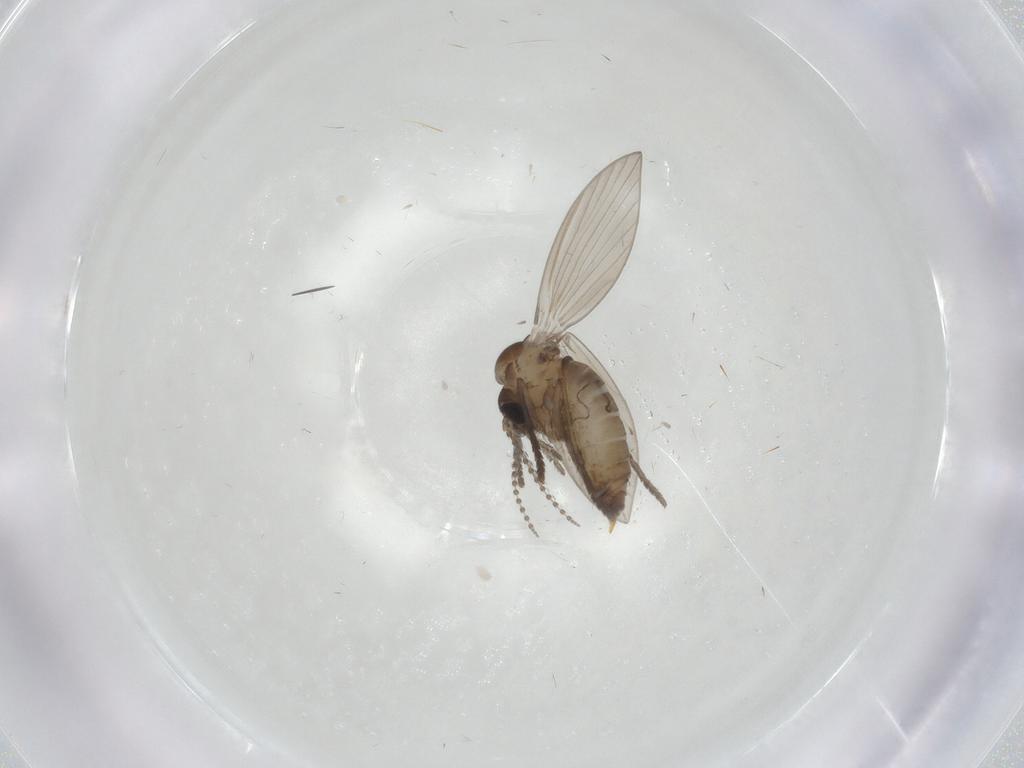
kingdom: Animalia
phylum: Arthropoda
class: Insecta
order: Diptera
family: Psychodidae
